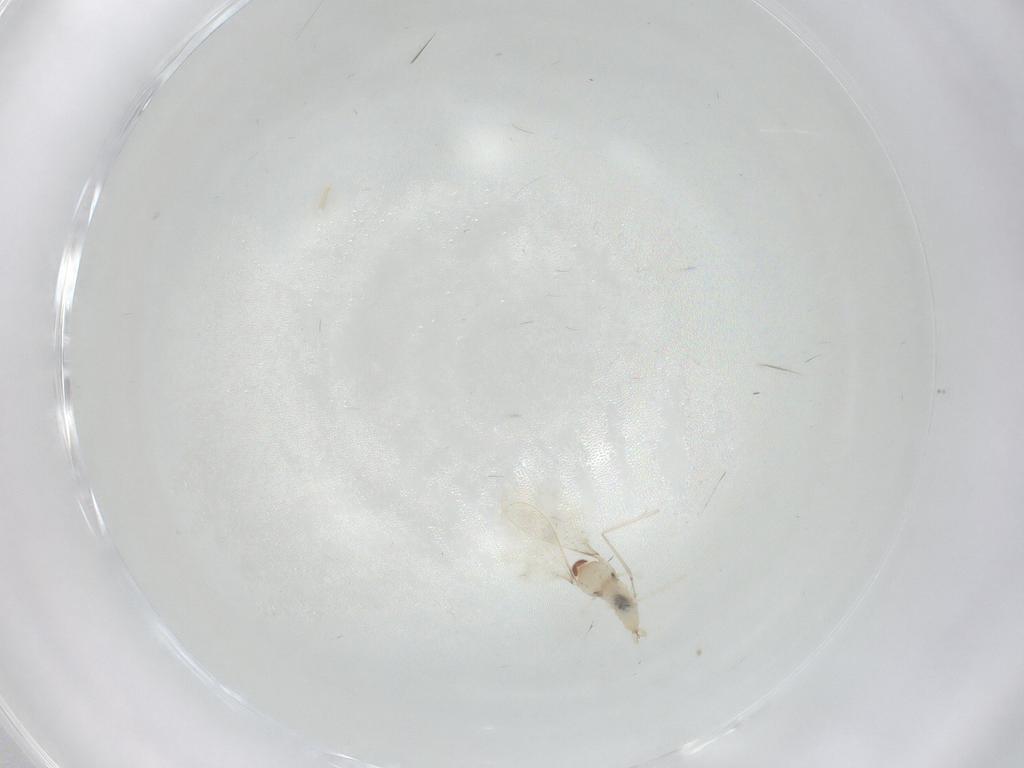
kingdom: Animalia
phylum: Arthropoda
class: Insecta
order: Diptera
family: Cecidomyiidae
